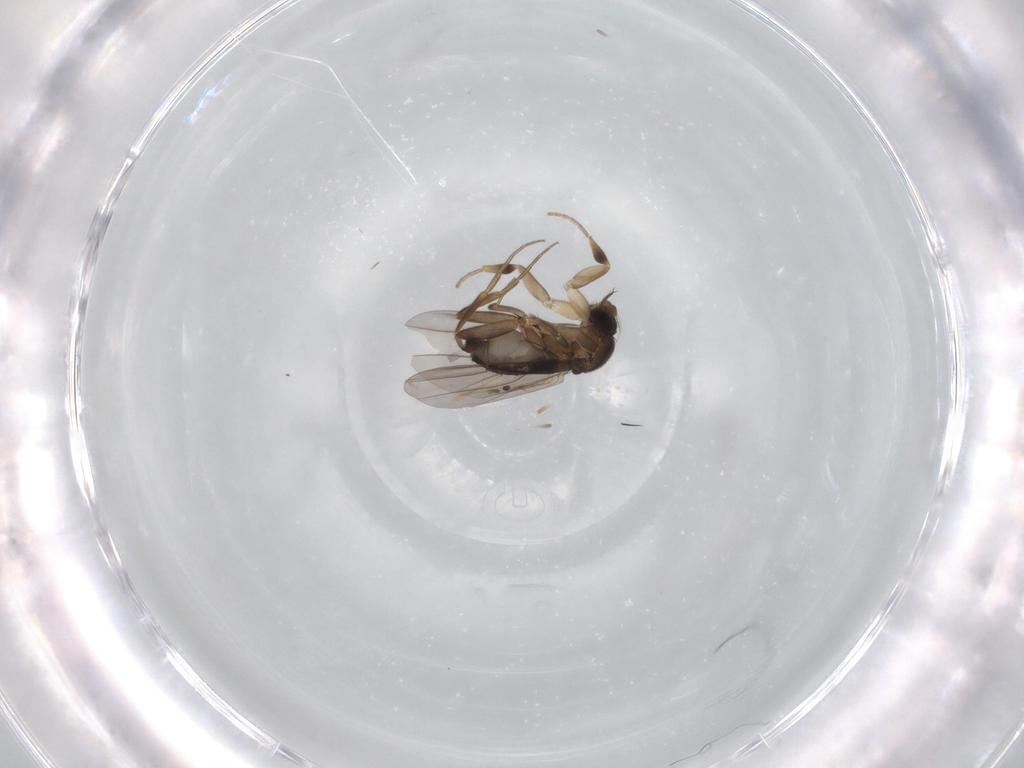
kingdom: Animalia
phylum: Arthropoda
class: Insecta
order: Diptera
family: Phoridae
